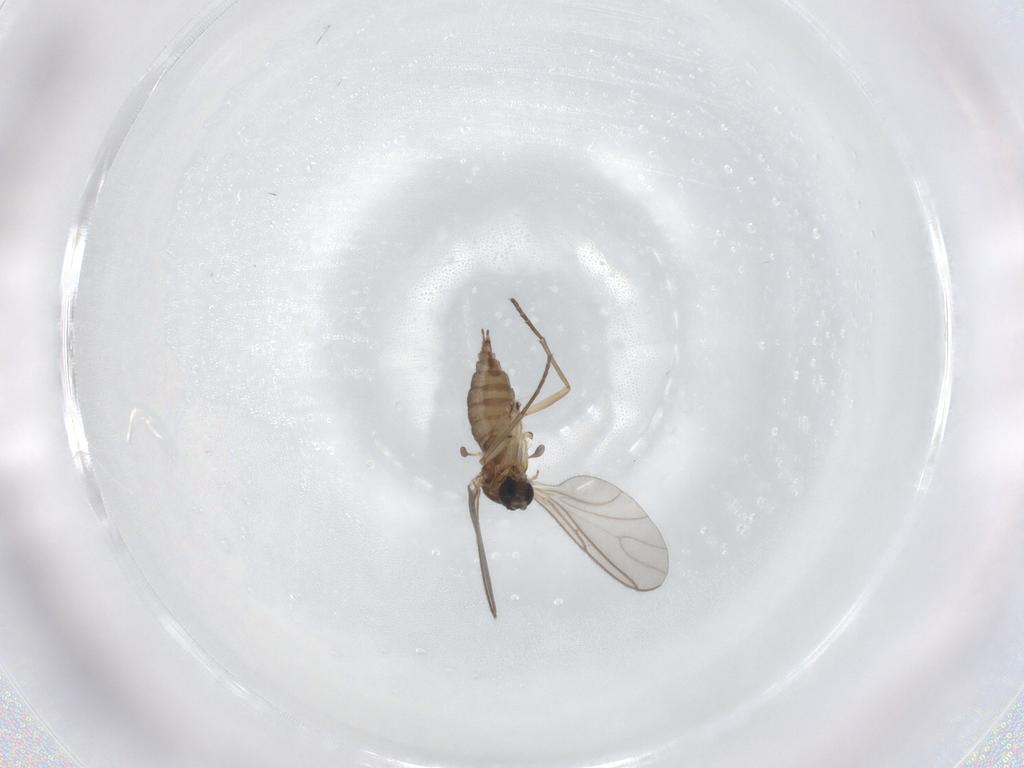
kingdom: Animalia
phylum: Arthropoda
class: Insecta
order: Diptera
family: Sciaridae
